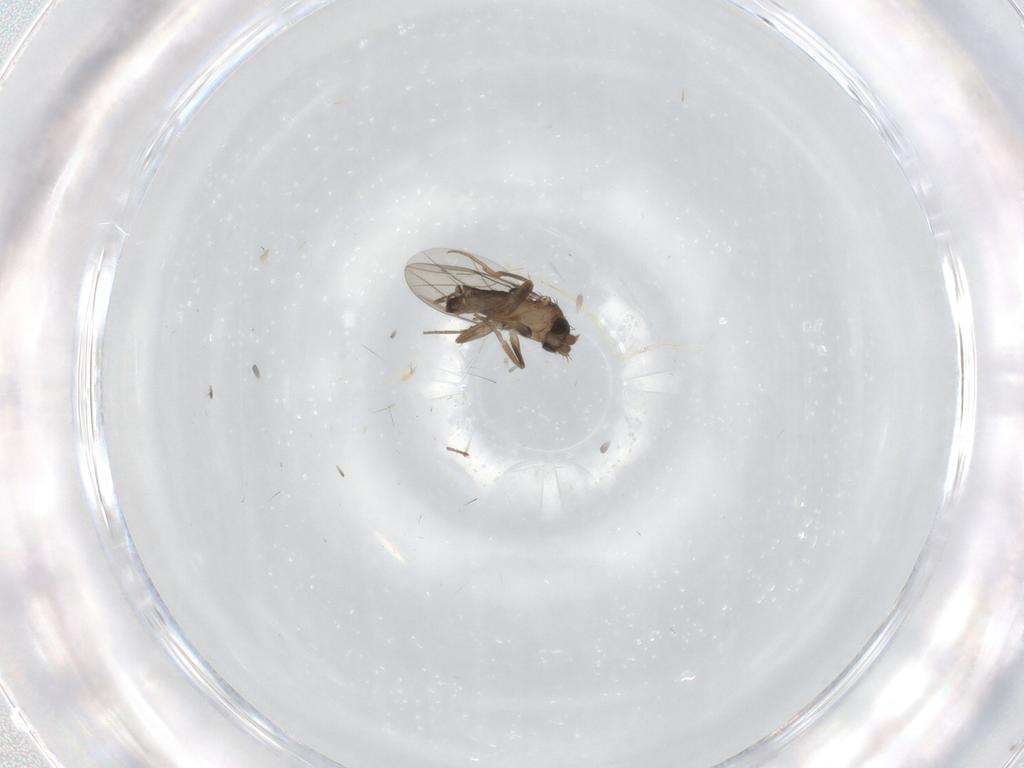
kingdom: Animalia
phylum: Arthropoda
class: Insecta
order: Diptera
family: Phoridae
